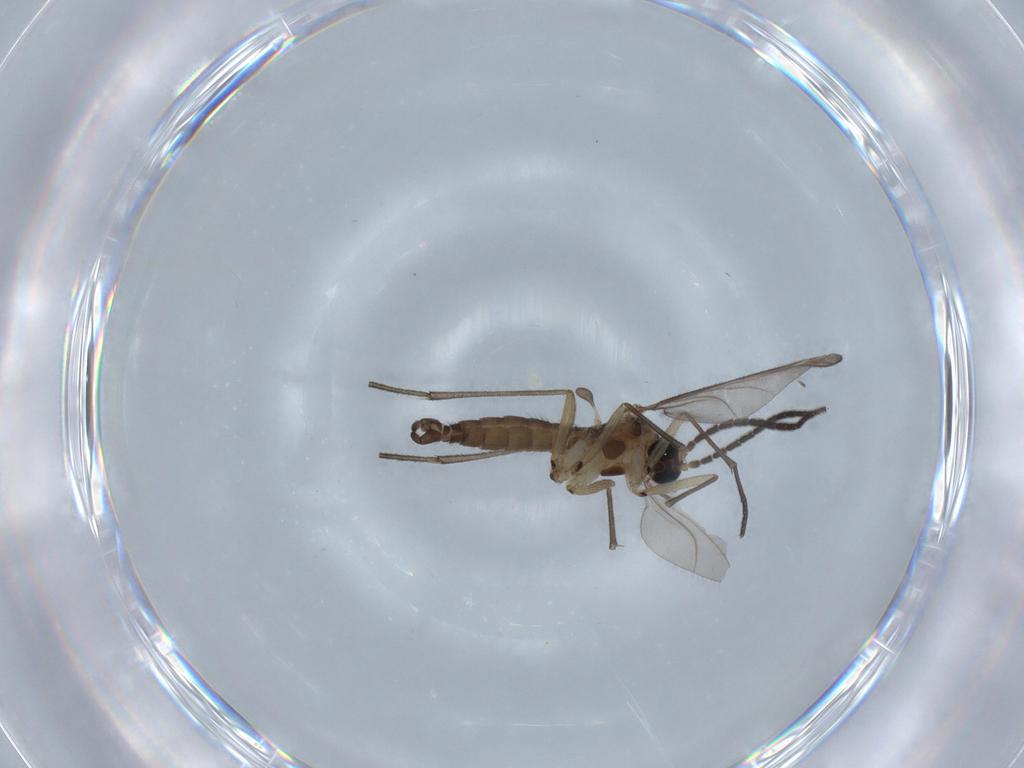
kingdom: Animalia
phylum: Arthropoda
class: Insecta
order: Diptera
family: Sciaridae
